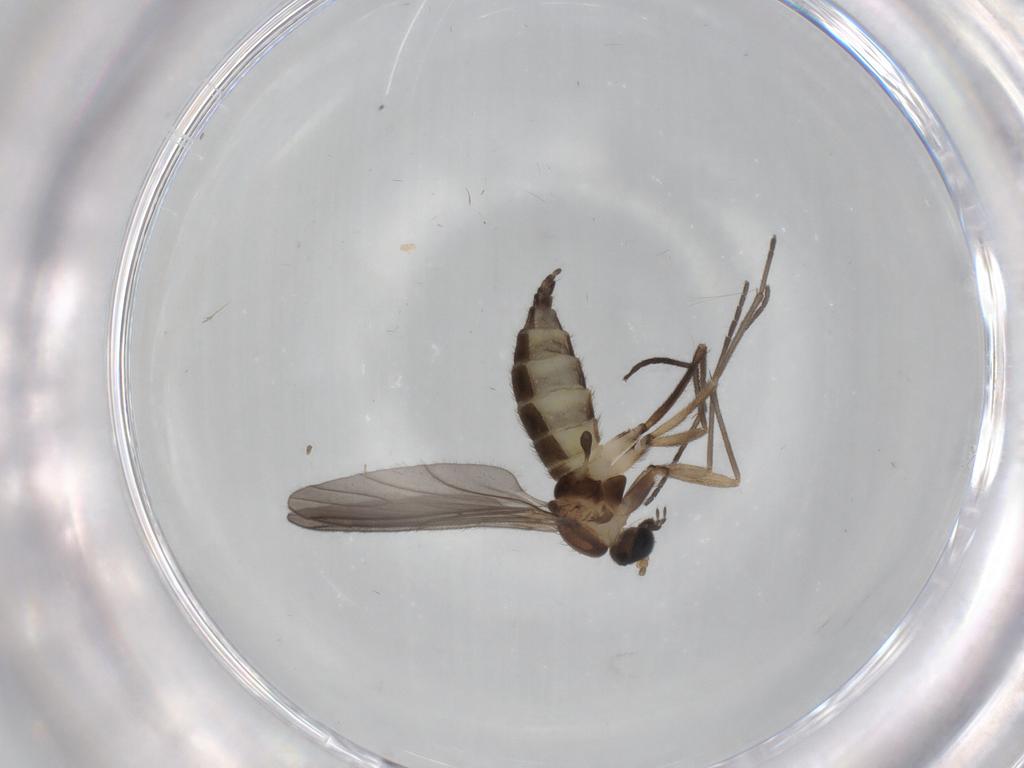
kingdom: Animalia
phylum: Arthropoda
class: Insecta
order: Diptera
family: Sciaridae
